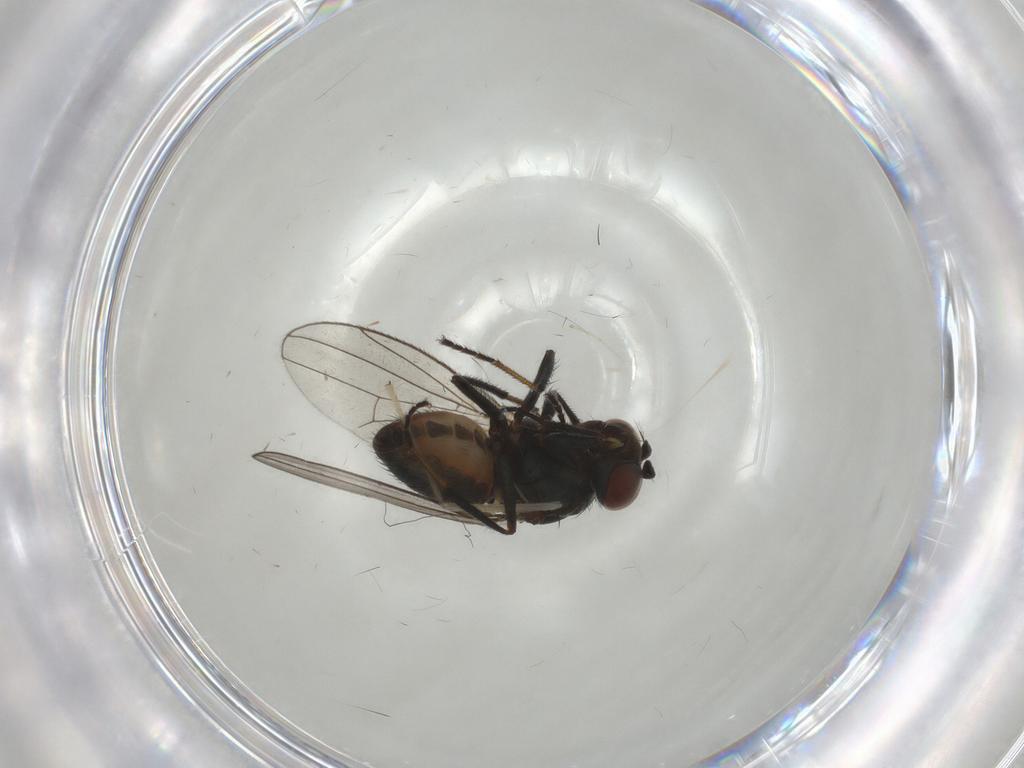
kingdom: Animalia
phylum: Arthropoda
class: Insecta
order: Diptera
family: Ephydridae
